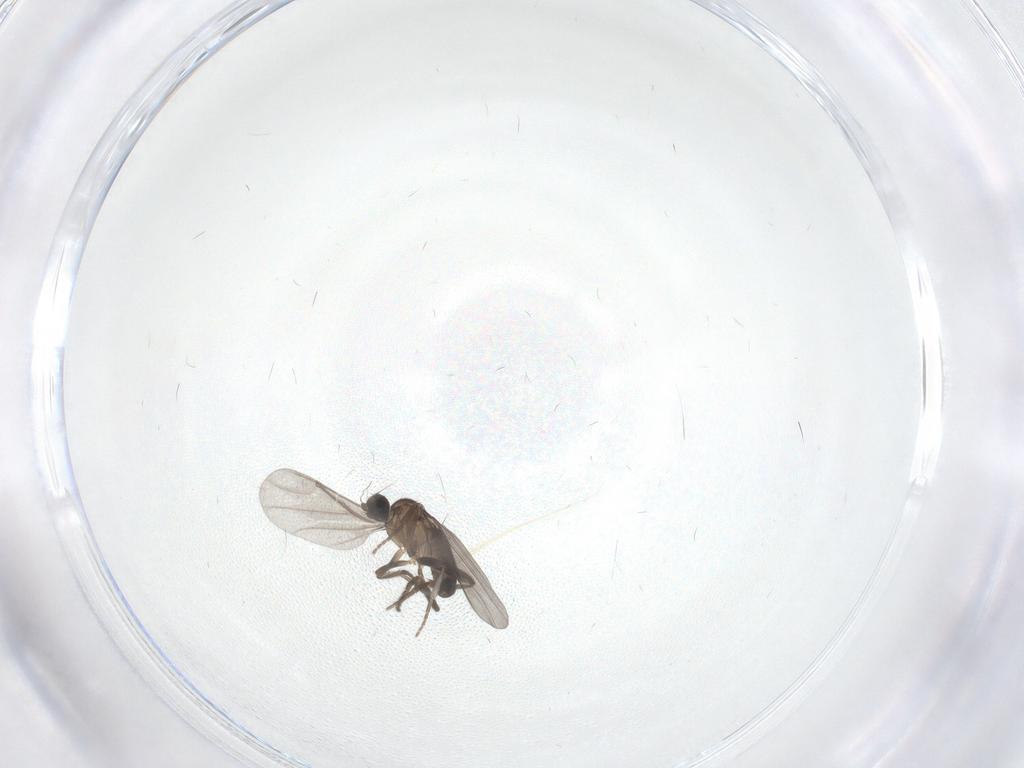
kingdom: Animalia
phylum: Arthropoda
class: Insecta
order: Diptera
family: Phoridae
